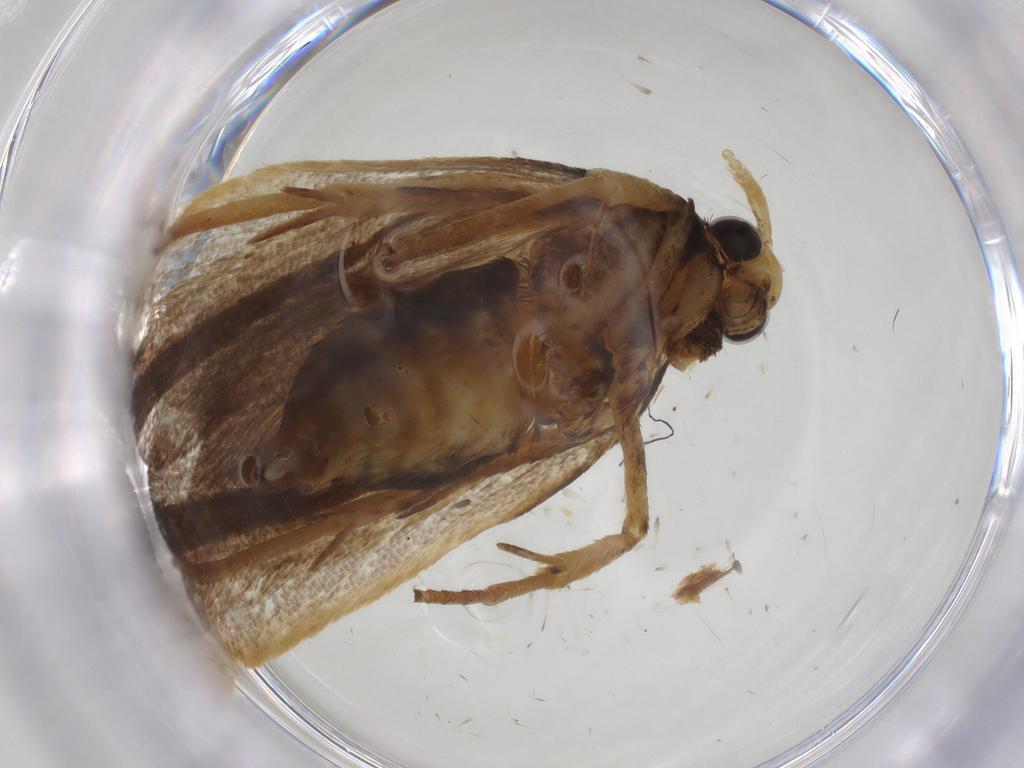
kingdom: Animalia
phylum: Arthropoda
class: Insecta
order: Lepidoptera
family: Lecithoceridae
